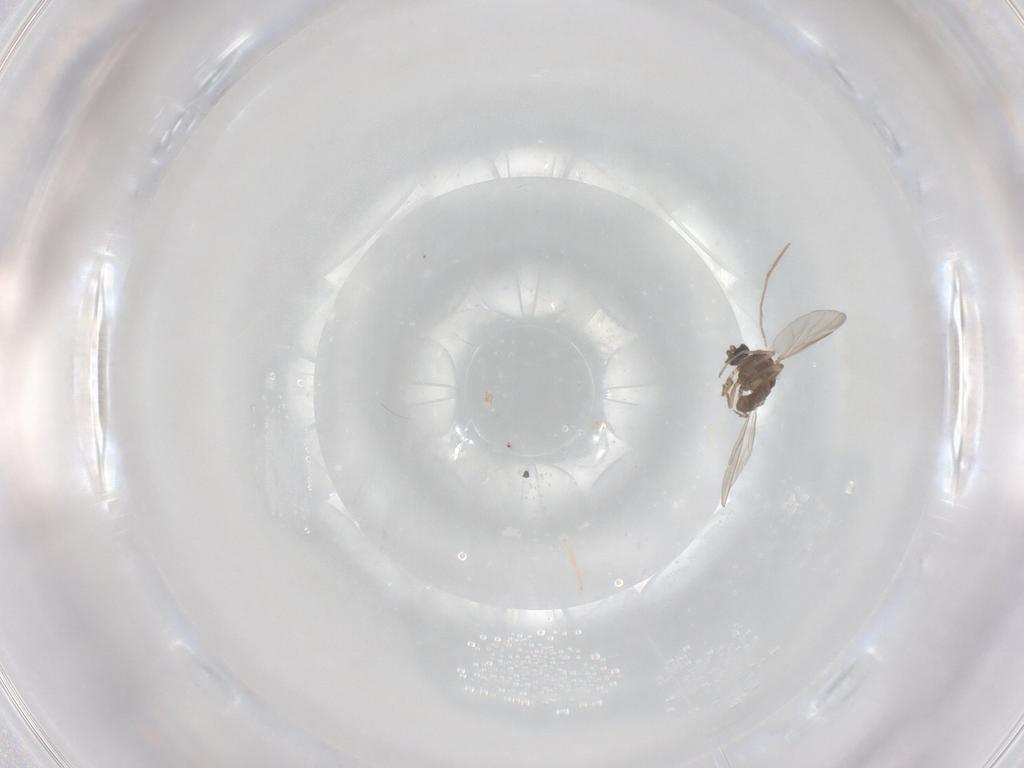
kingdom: Animalia
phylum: Arthropoda
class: Insecta
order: Diptera
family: Ceratopogonidae
